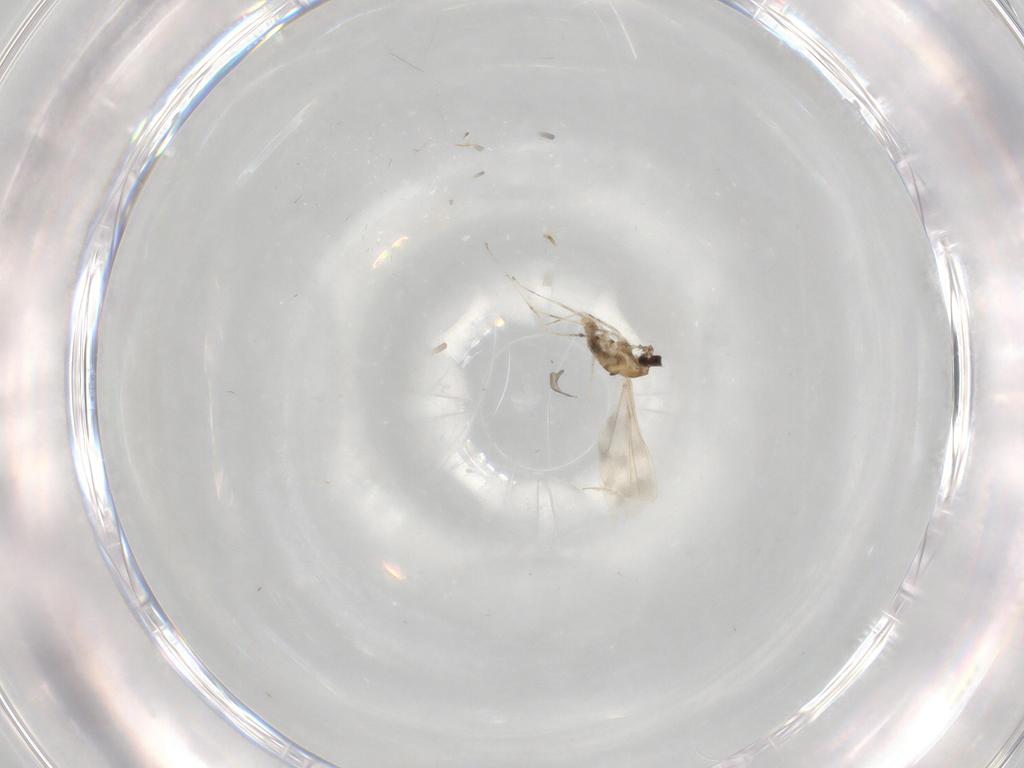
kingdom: Animalia
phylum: Arthropoda
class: Insecta
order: Diptera
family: Cecidomyiidae
